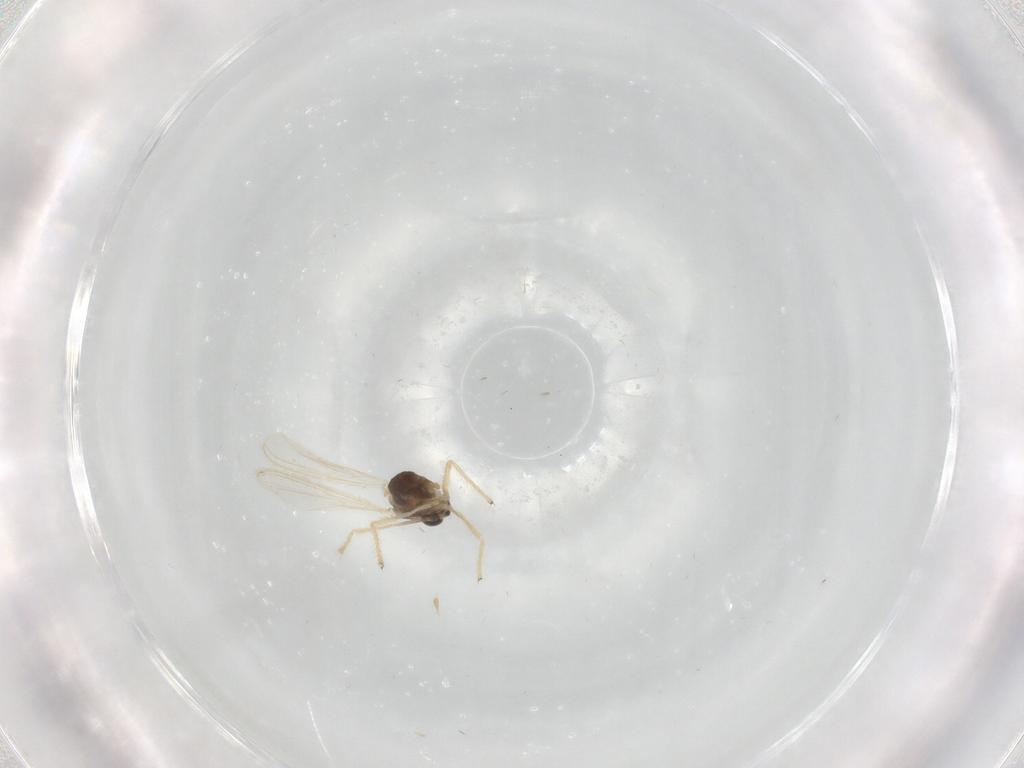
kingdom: Animalia
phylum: Arthropoda
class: Insecta
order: Diptera
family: Chironomidae
